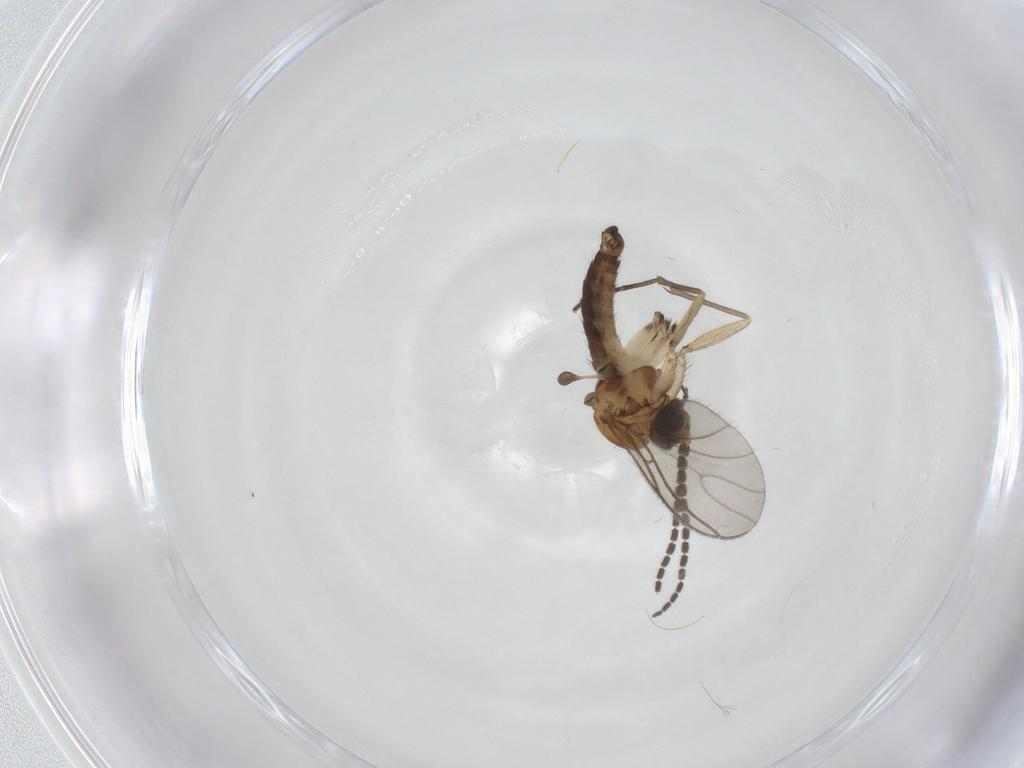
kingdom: Animalia
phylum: Arthropoda
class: Insecta
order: Diptera
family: Sciaridae
